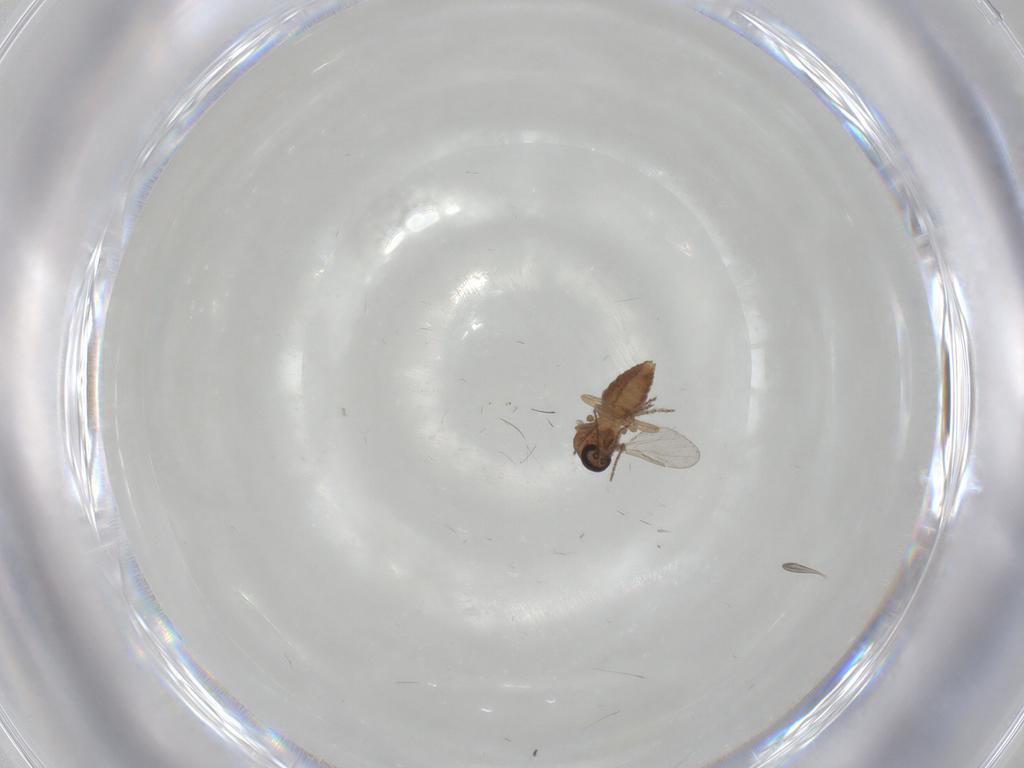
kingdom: Animalia
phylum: Arthropoda
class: Insecta
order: Diptera
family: Ceratopogonidae
